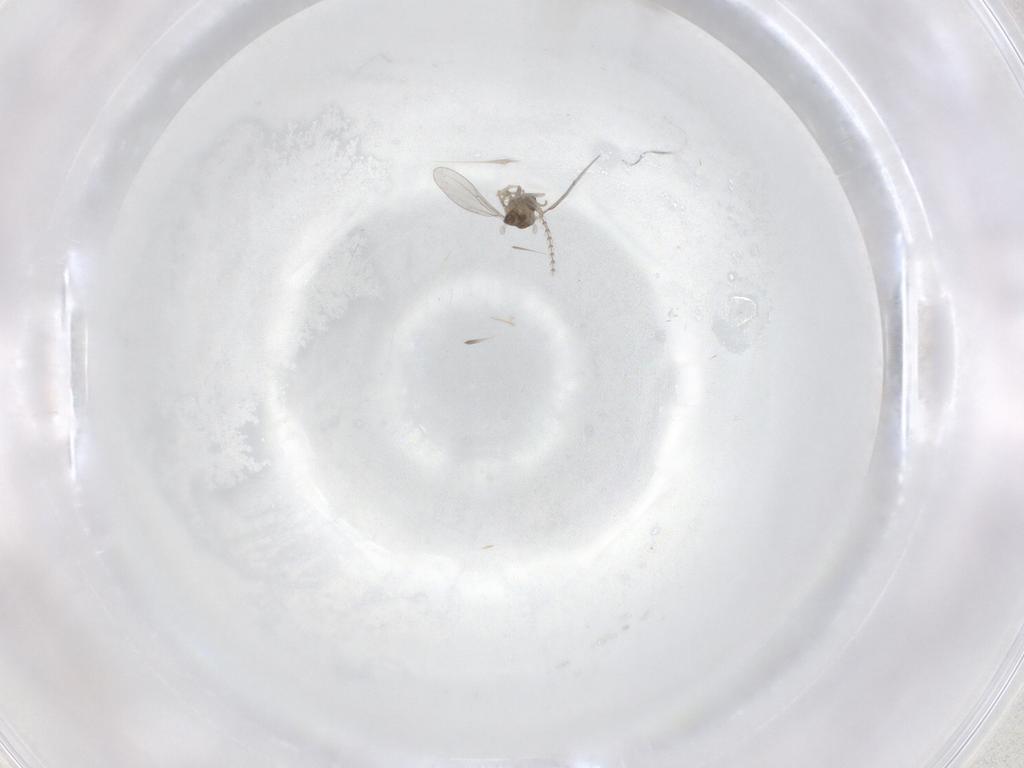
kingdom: Animalia
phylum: Arthropoda
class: Insecta
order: Diptera
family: Cecidomyiidae
